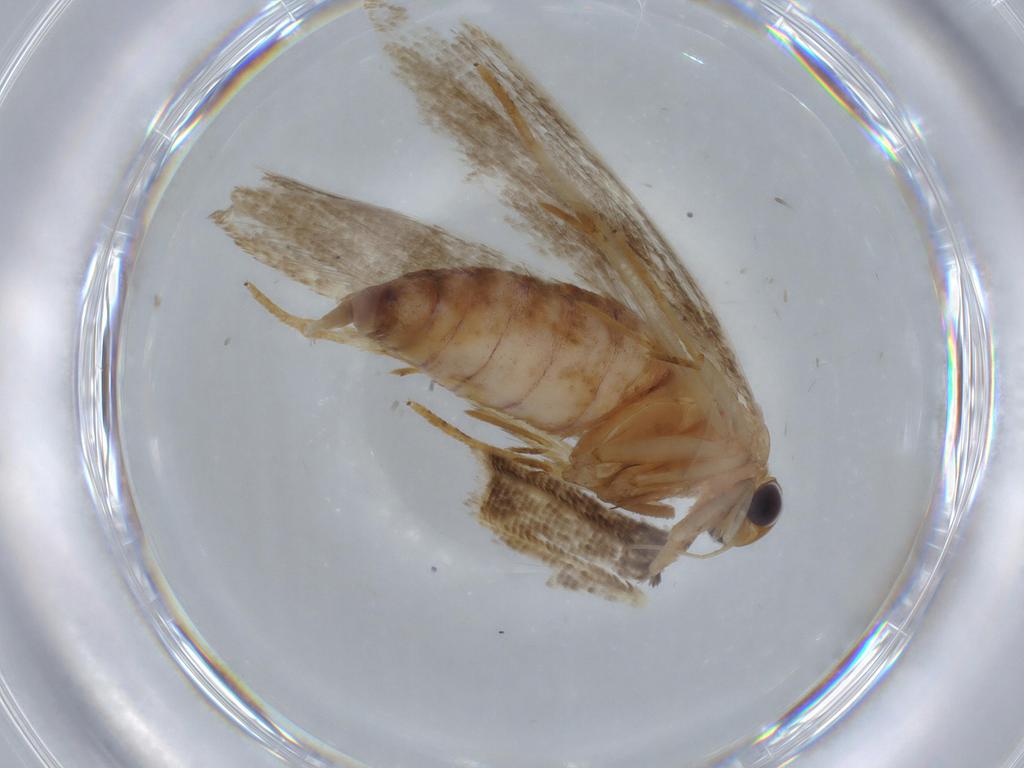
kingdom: Animalia
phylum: Arthropoda
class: Insecta
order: Lepidoptera
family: Blastobasidae
